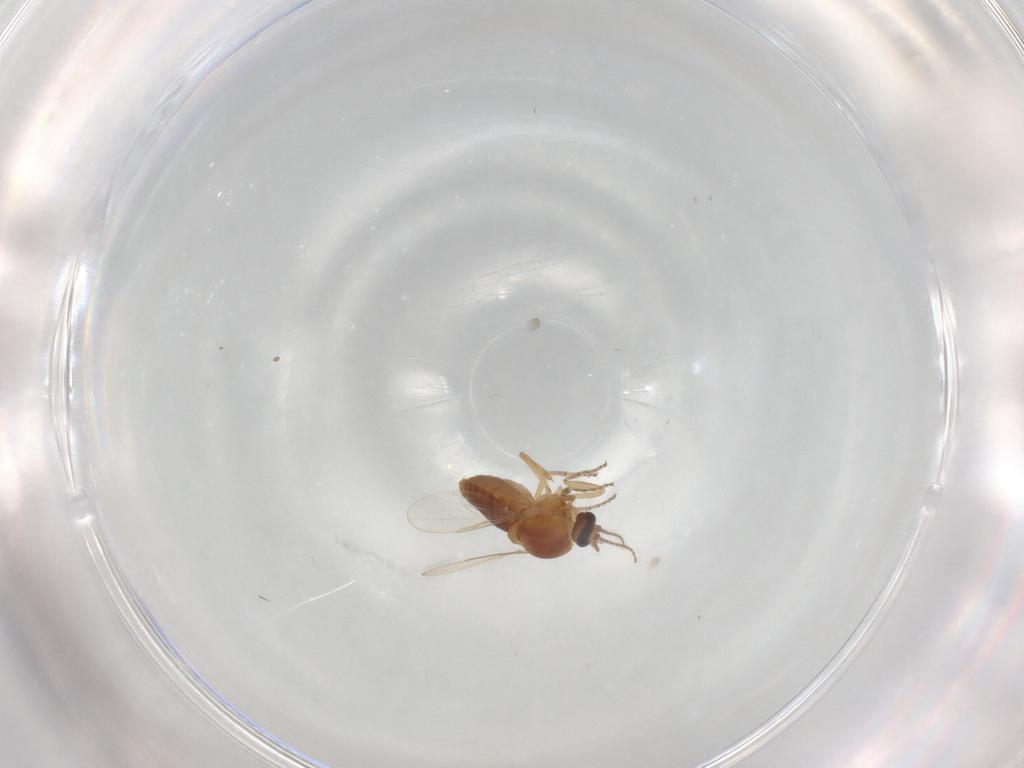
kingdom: Animalia
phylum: Arthropoda
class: Insecta
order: Diptera
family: Ceratopogonidae
